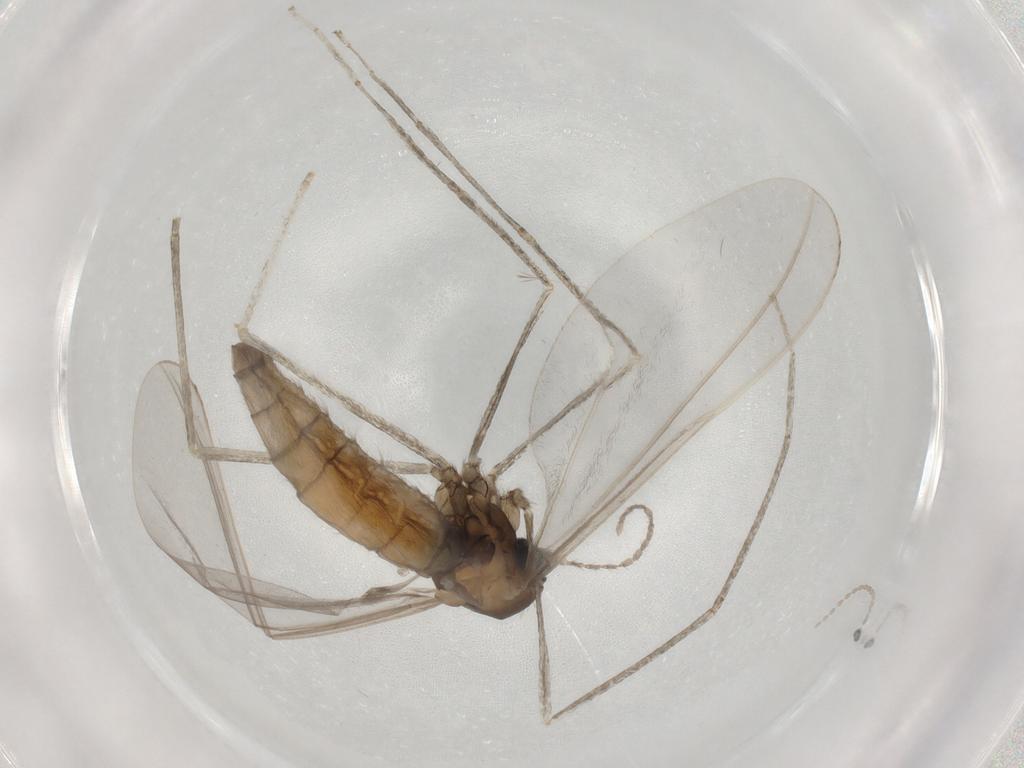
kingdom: Animalia
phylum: Arthropoda
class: Insecta
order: Diptera
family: Cecidomyiidae
